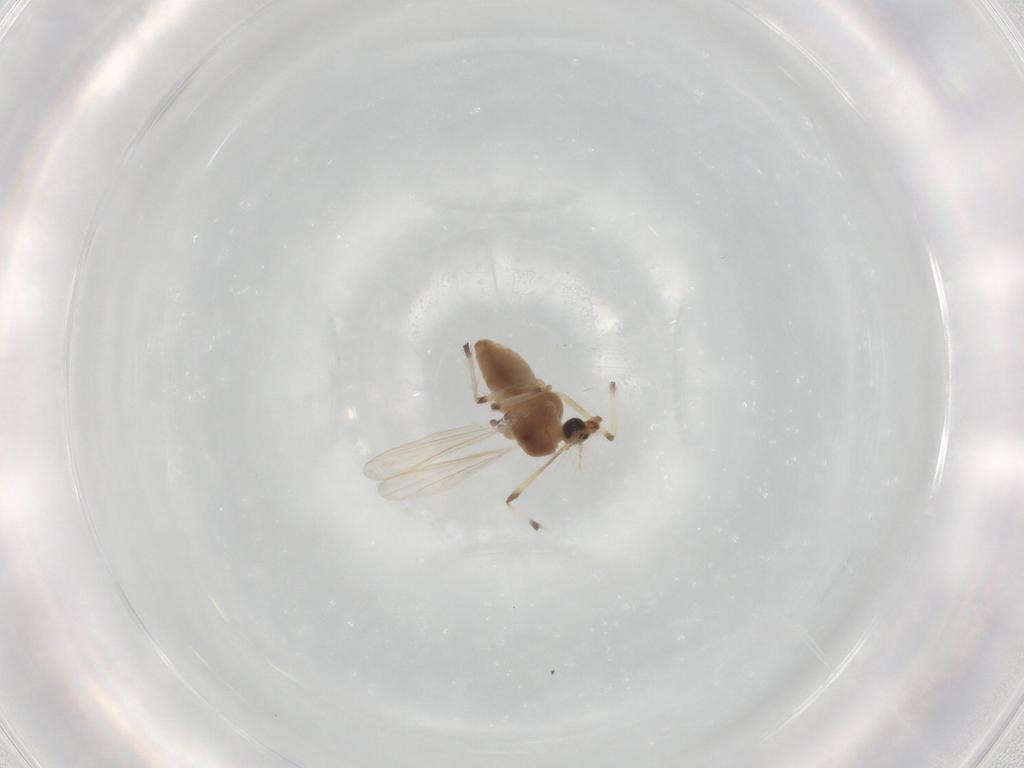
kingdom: Animalia
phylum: Arthropoda
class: Insecta
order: Diptera
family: Chironomidae
